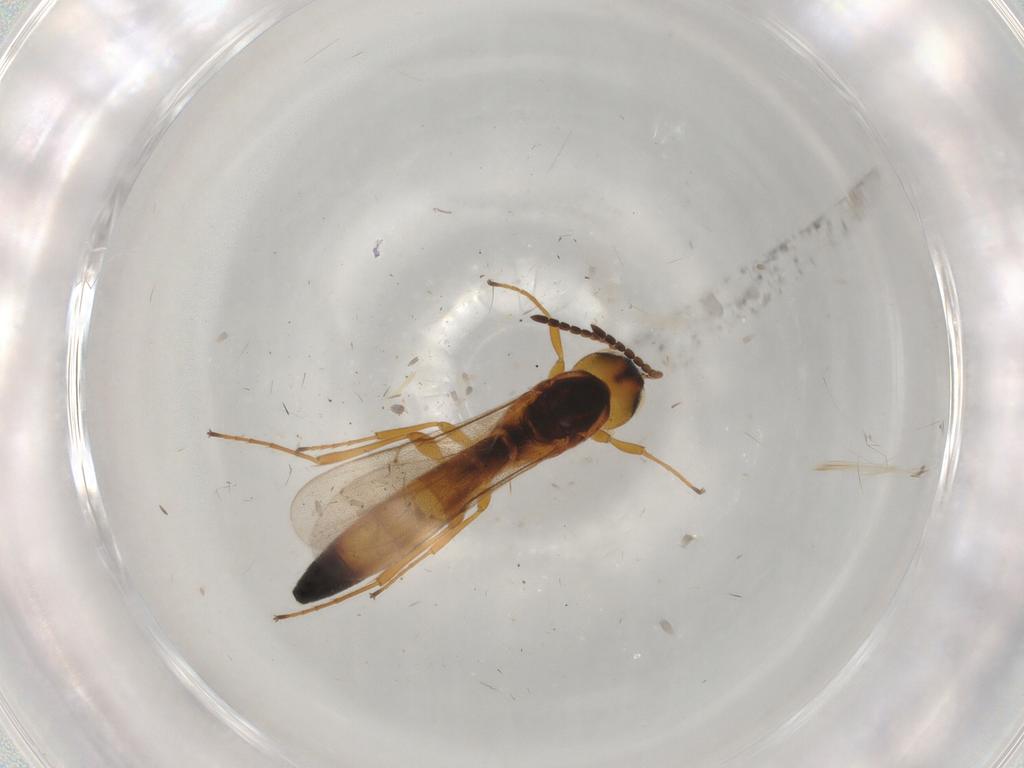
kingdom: Animalia
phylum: Arthropoda
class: Insecta
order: Hymenoptera
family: Scelionidae
